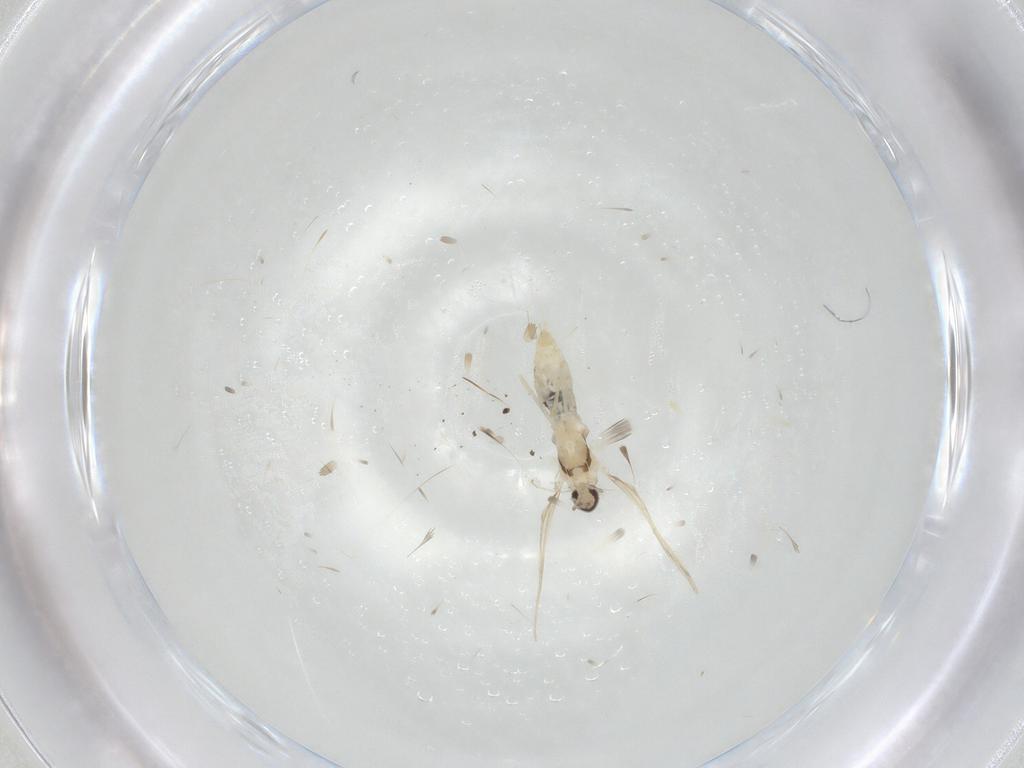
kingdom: Animalia
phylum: Arthropoda
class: Insecta
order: Diptera
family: Cecidomyiidae
